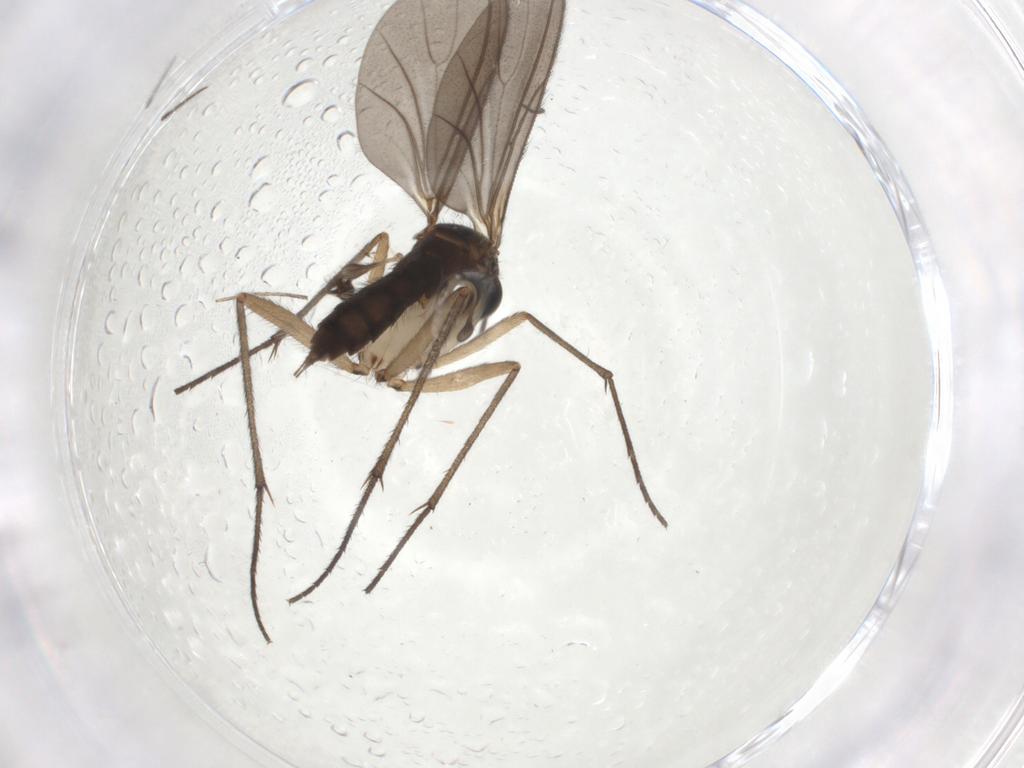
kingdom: Animalia
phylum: Arthropoda
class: Insecta
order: Diptera
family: Sciaridae
